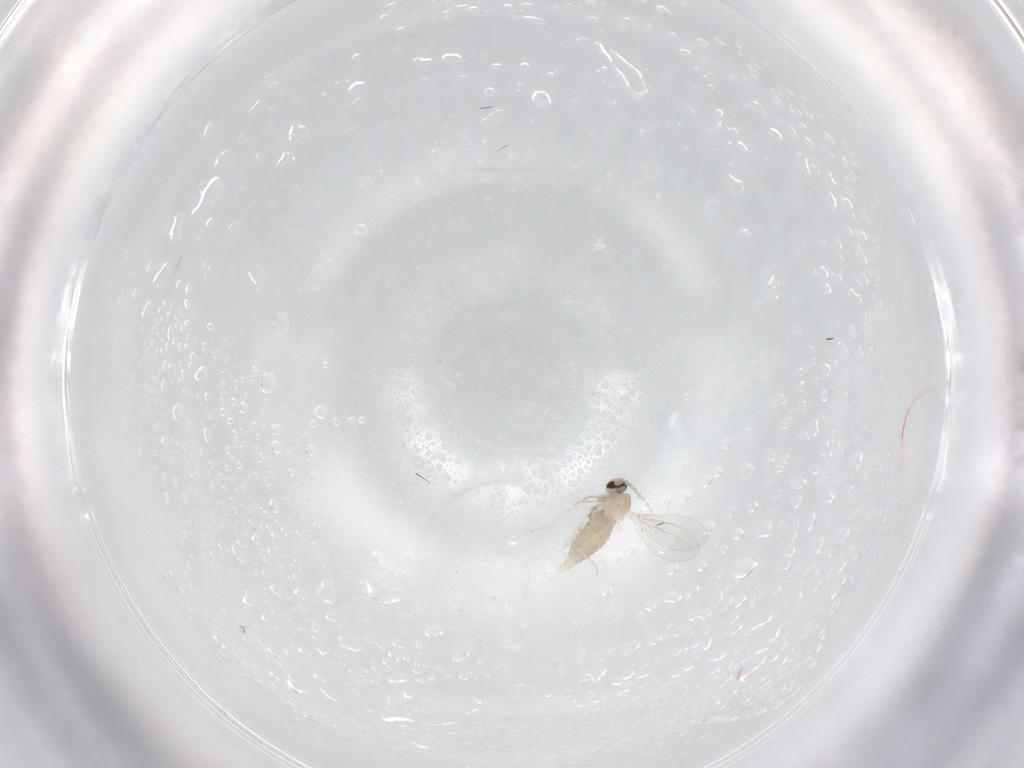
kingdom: Animalia
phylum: Arthropoda
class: Insecta
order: Diptera
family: Cecidomyiidae
